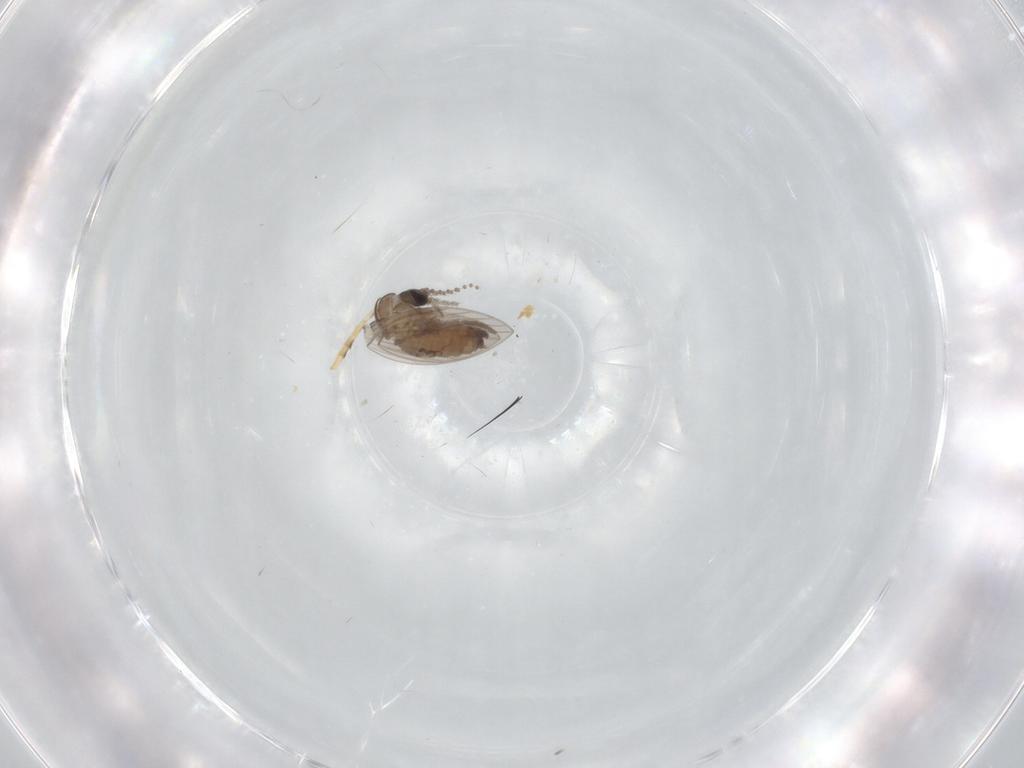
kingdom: Animalia
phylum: Arthropoda
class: Insecta
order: Diptera
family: Psychodidae
